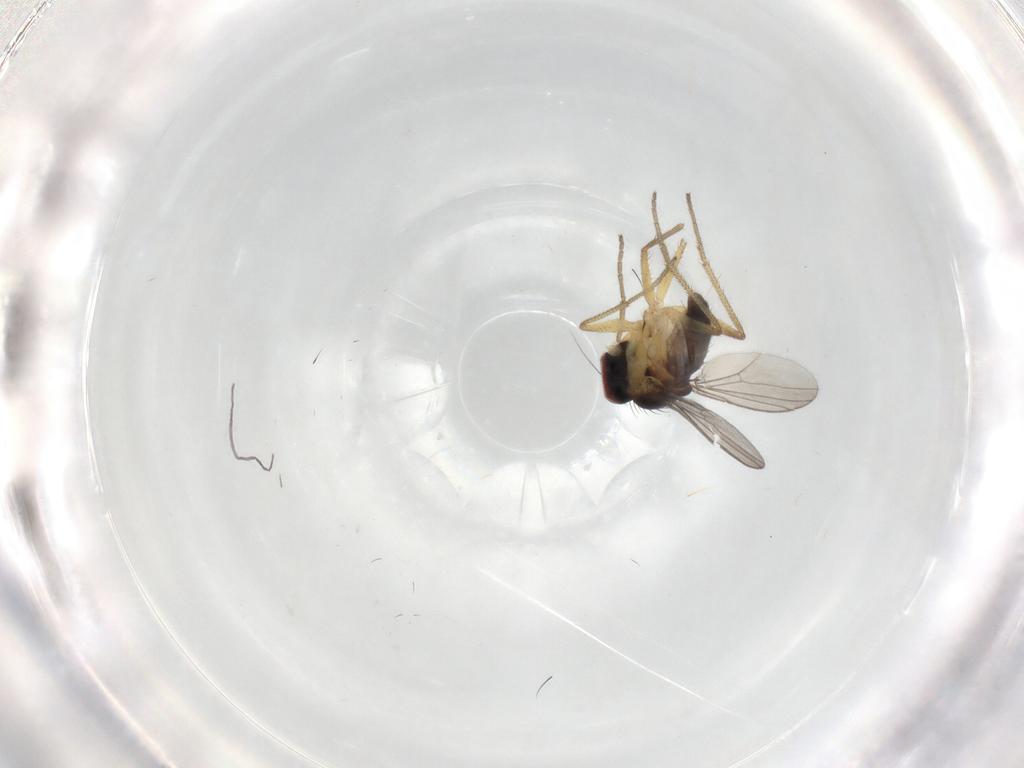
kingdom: Animalia
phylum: Arthropoda
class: Insecta
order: Diptera
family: Dolichopodidae
